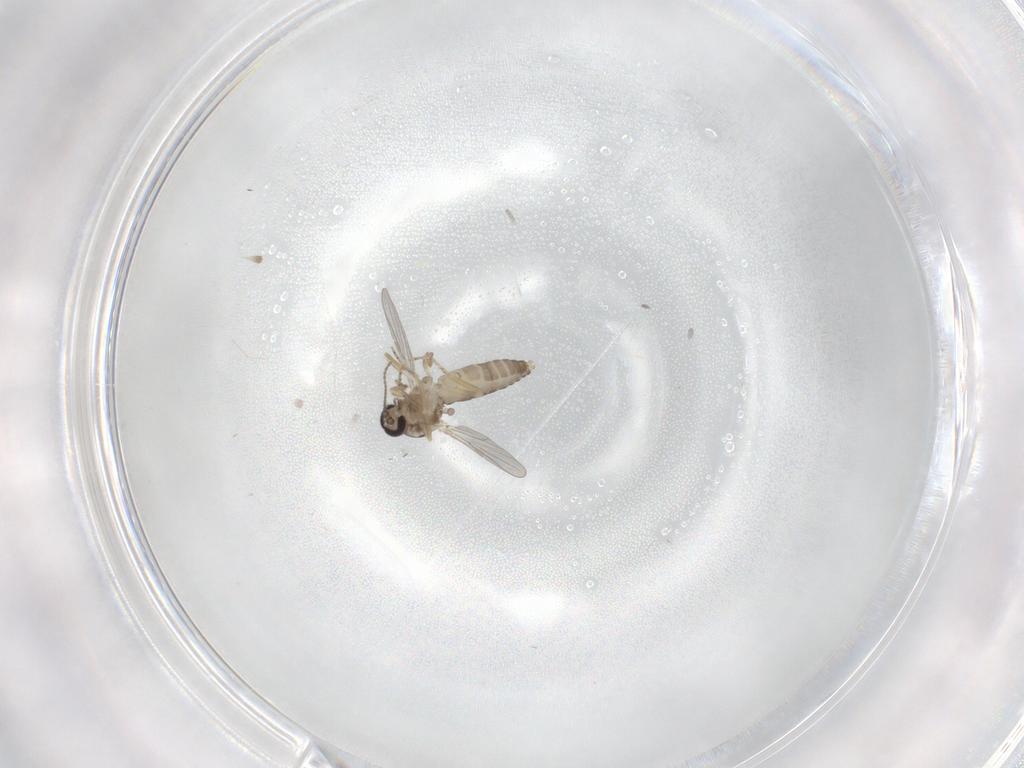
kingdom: Animalia
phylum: Arthropoda
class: Insecta
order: Diptera
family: Ceratopogonidae
